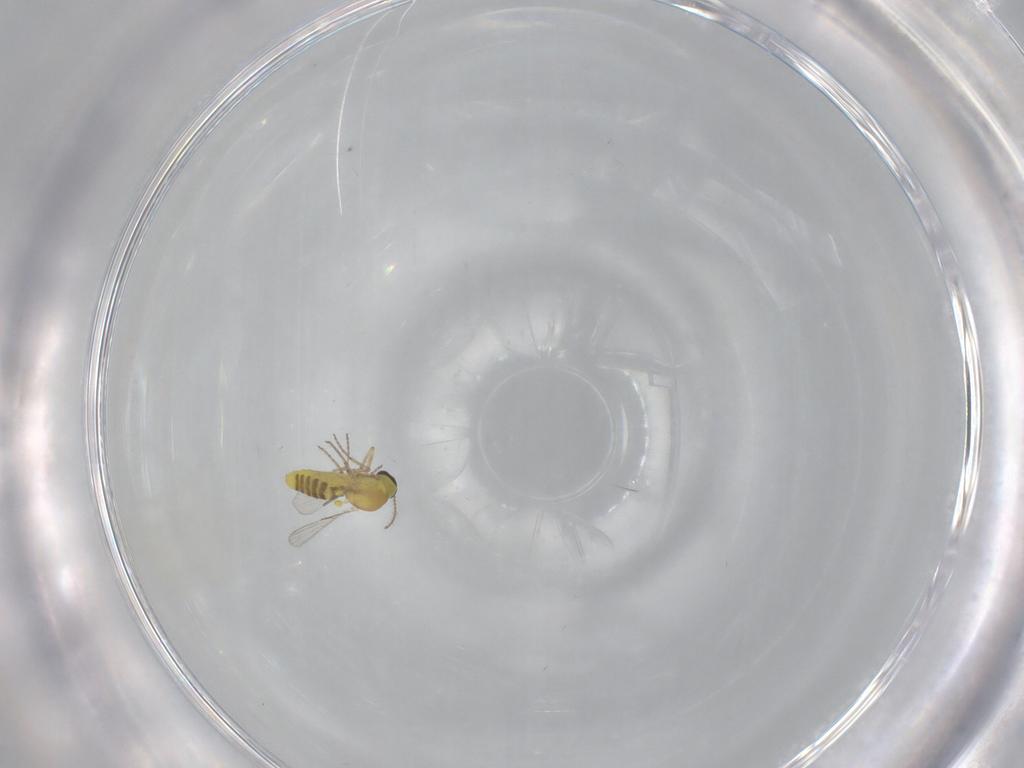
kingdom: Animalia
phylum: Arthropoda
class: Insecta
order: Diptera
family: Ceratopogonidae
